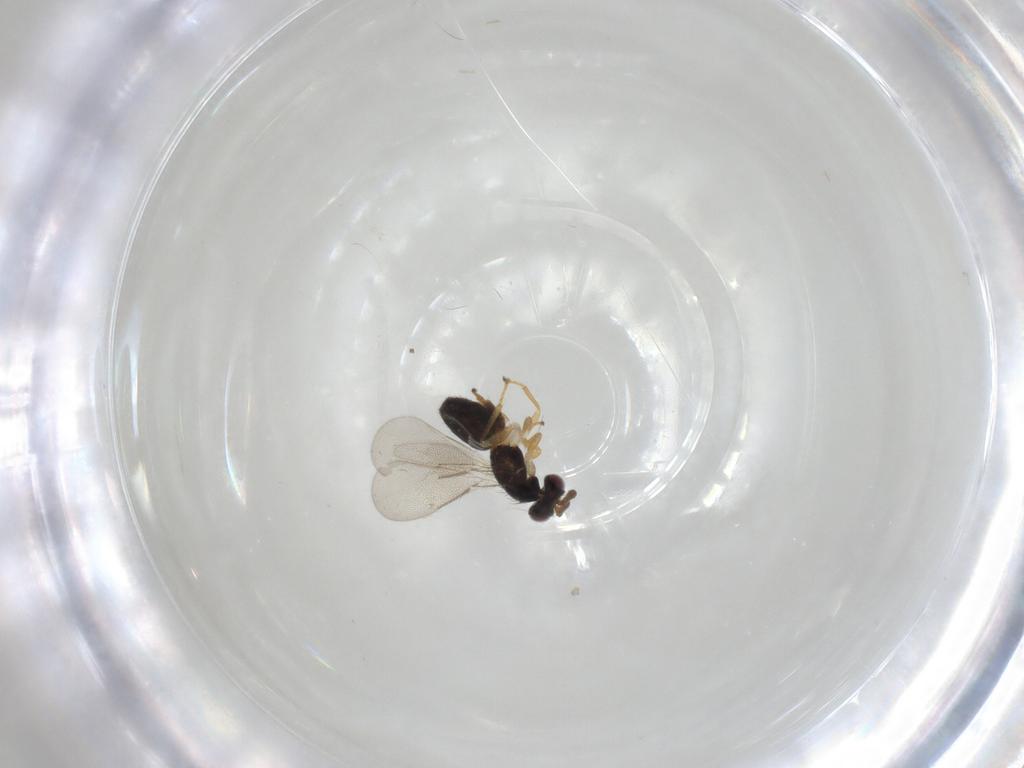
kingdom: Animalia
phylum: Arthropoda
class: Insecta
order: Hymenoptera
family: Eulophidae
